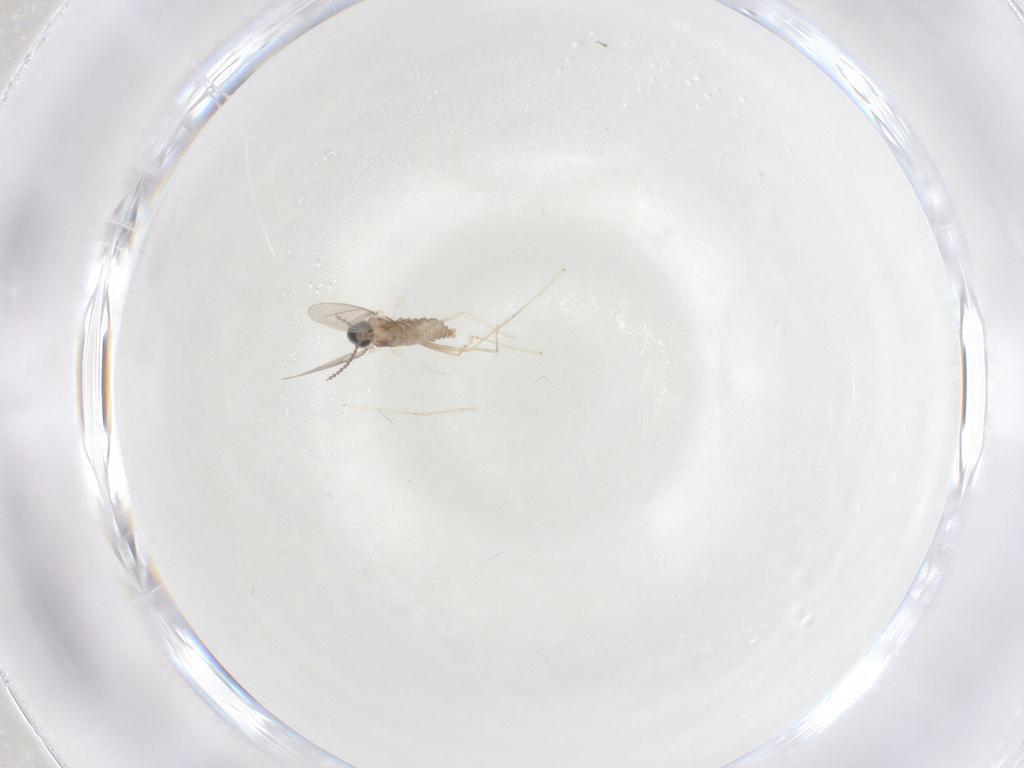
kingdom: Animalia
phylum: Arthropoda
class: Insecta
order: Diptera
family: Cecidomyiidae
